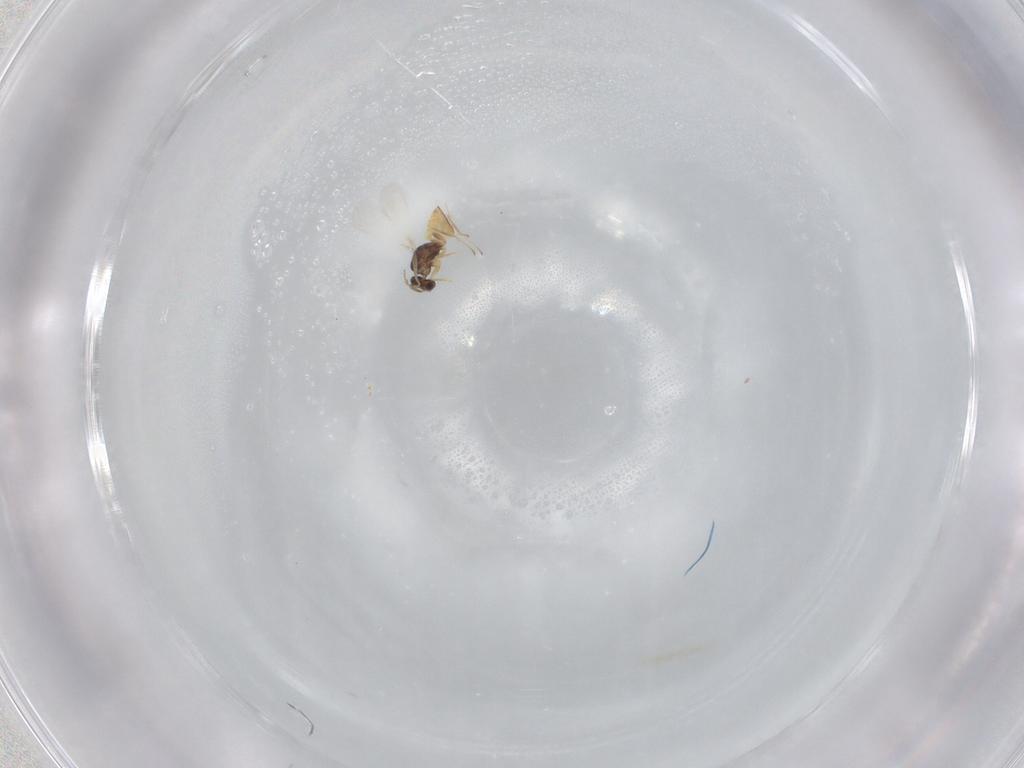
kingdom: Animalia
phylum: Arthropoda
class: Insecta
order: Hymenoptera
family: Mymaridae
